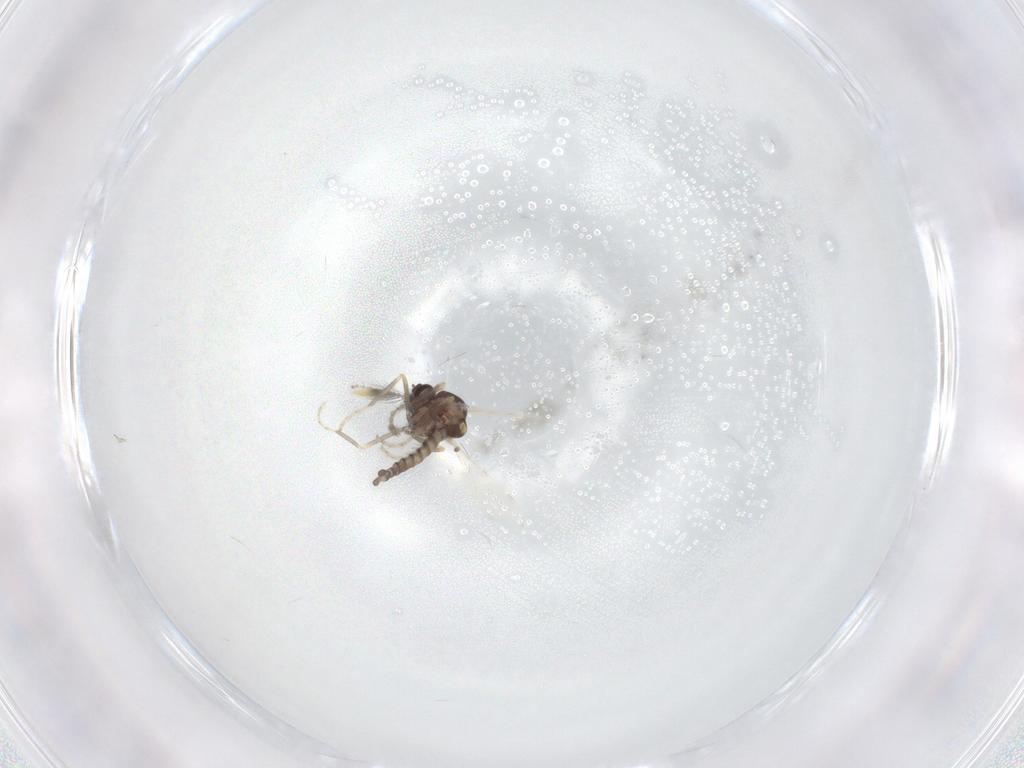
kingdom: Animalia
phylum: Arthropoda
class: Insecta
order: Diptera
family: Ceratopogonidae
